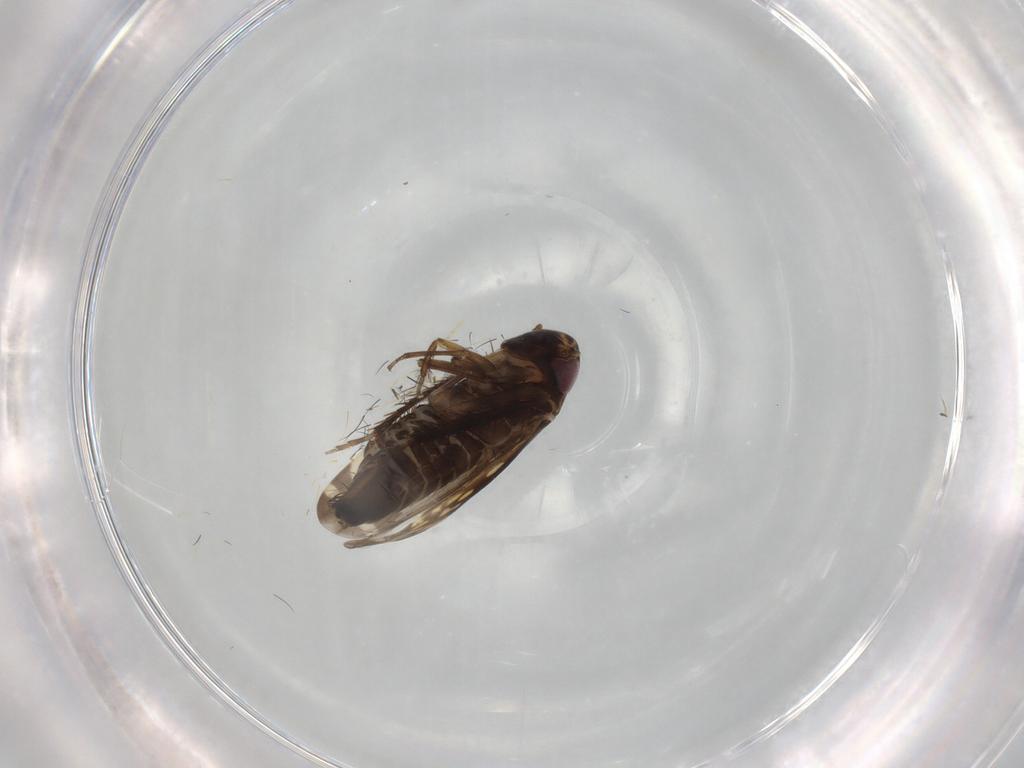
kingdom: Animalia
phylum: Arthropoda
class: Insecta
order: Hemiptera
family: Cicadellidae
